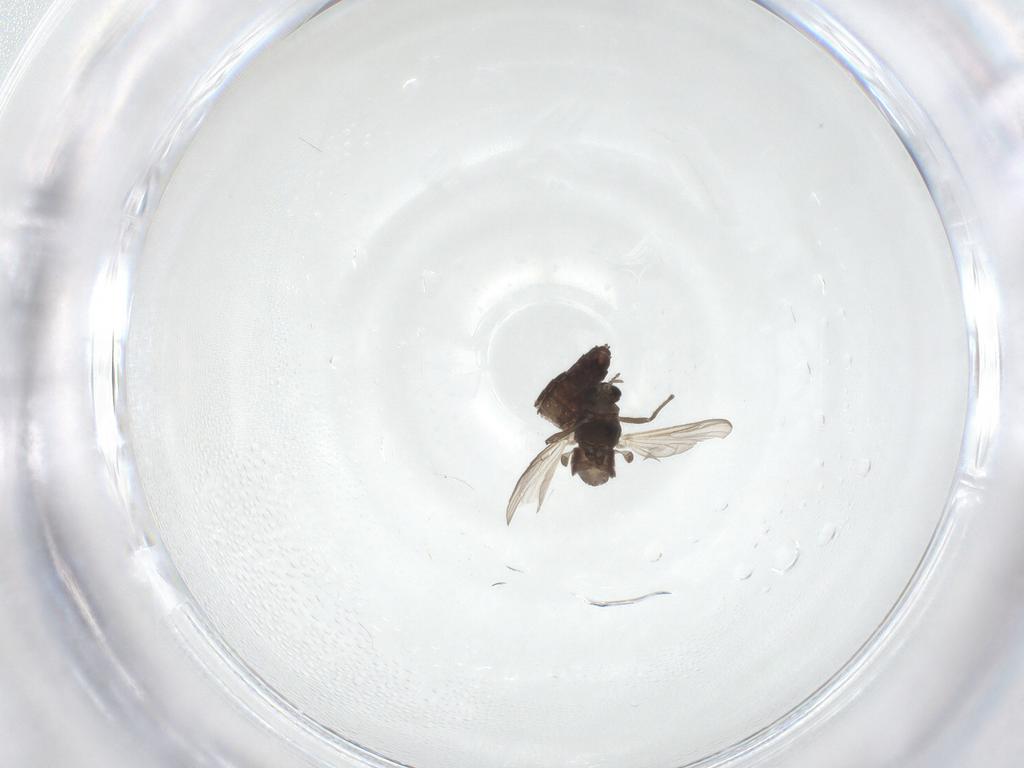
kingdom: Animalia
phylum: Arthropoda
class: Insecta
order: Diptera
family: Chironomidae
